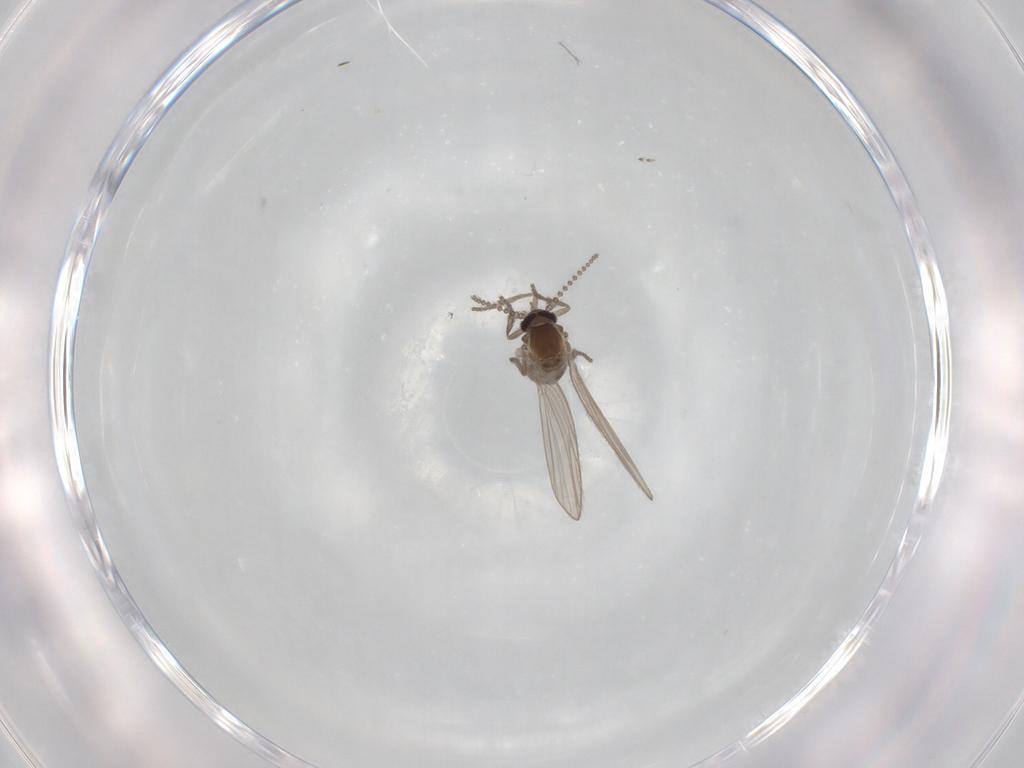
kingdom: Animalia
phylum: Arthropoda
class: Insecta
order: Diptera
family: Psychodidae
